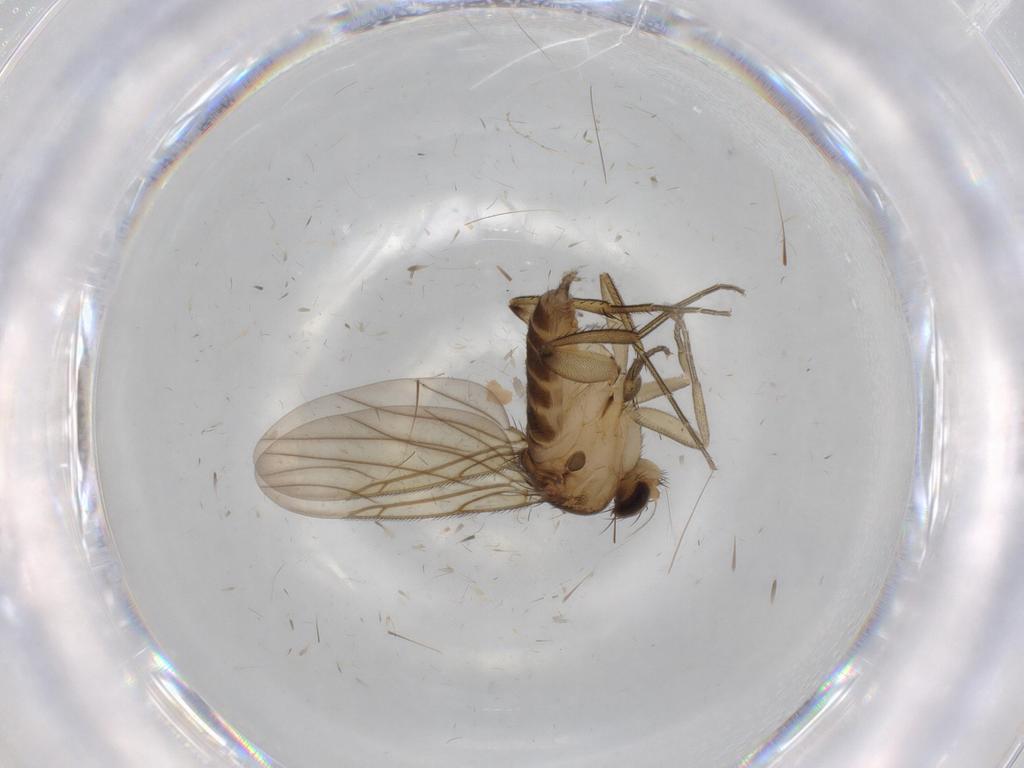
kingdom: Animalia
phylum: Arthropoda
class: Insecta
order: Diptera
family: Phoridae
